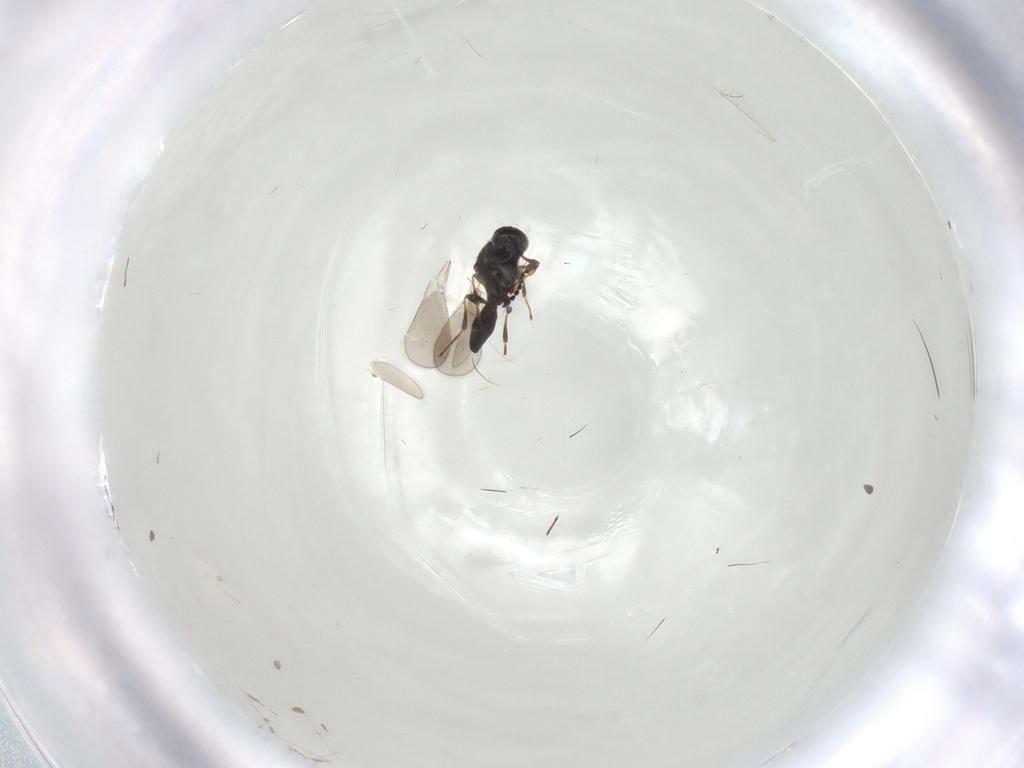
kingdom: Animalia
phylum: Arthropoda
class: Insecta
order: Hymenoptera
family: Platygastridae
